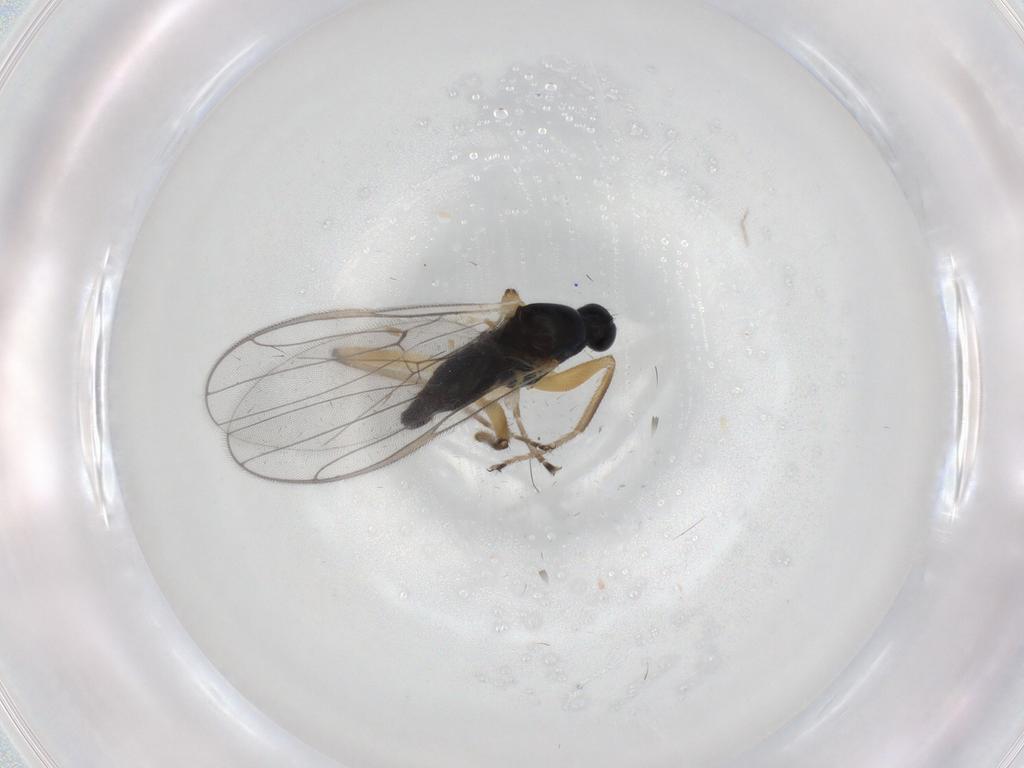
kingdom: Animalia
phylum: Arthropoda
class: Insecta
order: Diptera
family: Hybotidae
